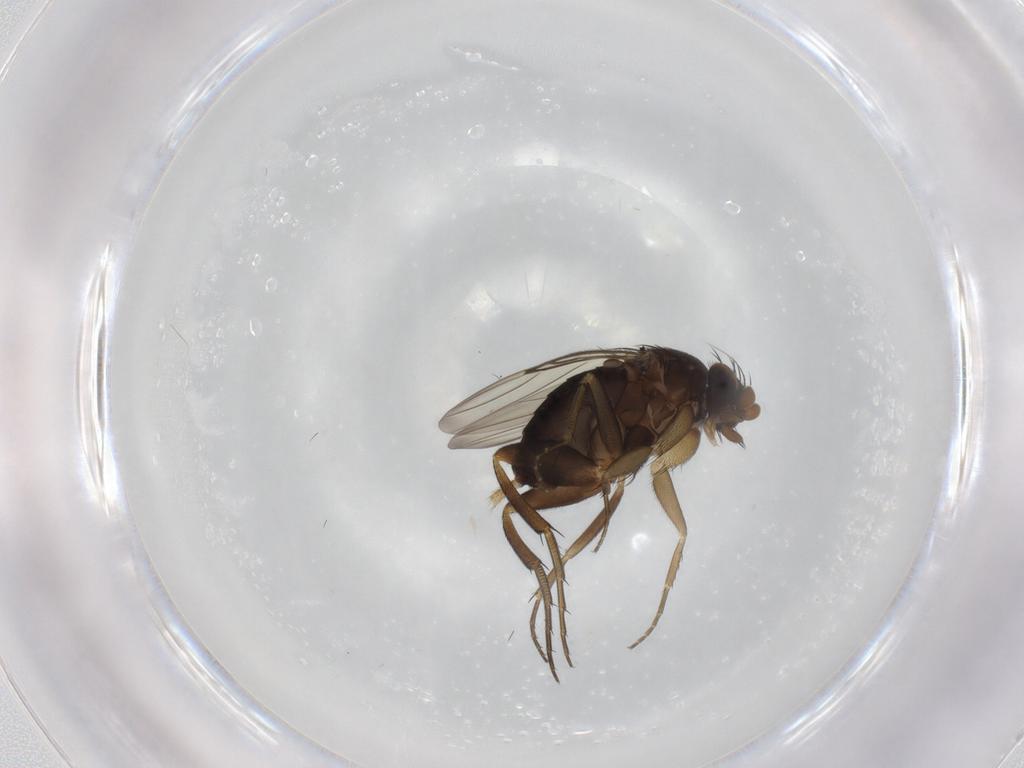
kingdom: Animalia
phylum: Arthropoda
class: Insecta
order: Diptera
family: Phoridae
